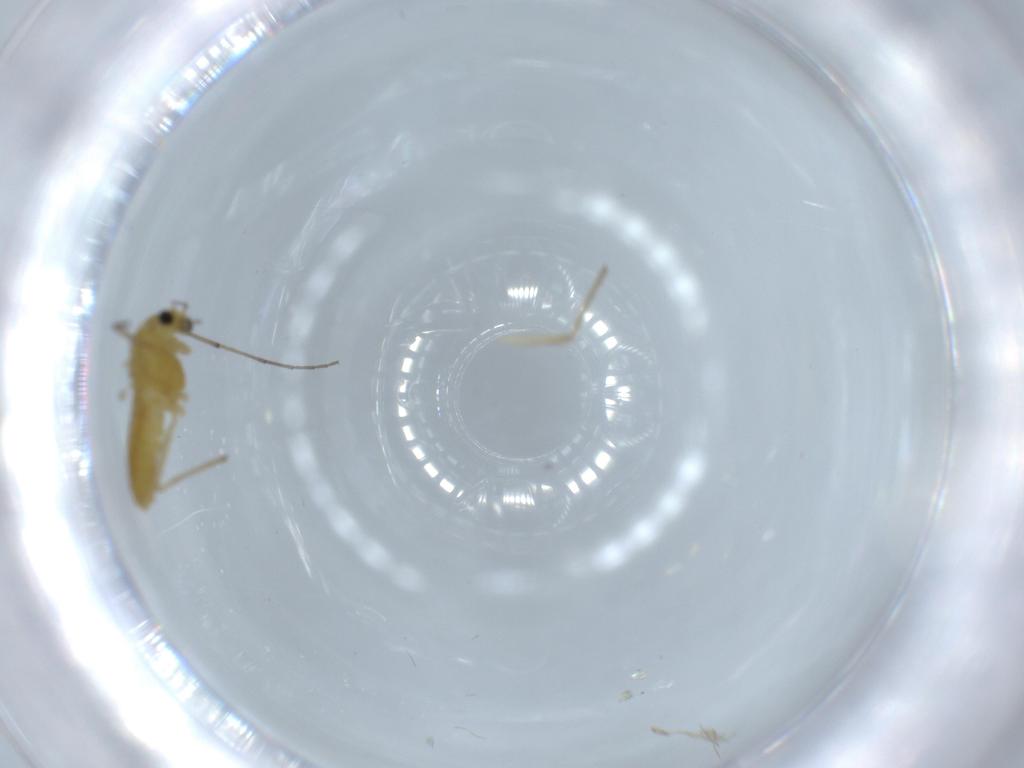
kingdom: Animalia
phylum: Arthropoda
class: Insecta
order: Diptera
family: Chironomidae
